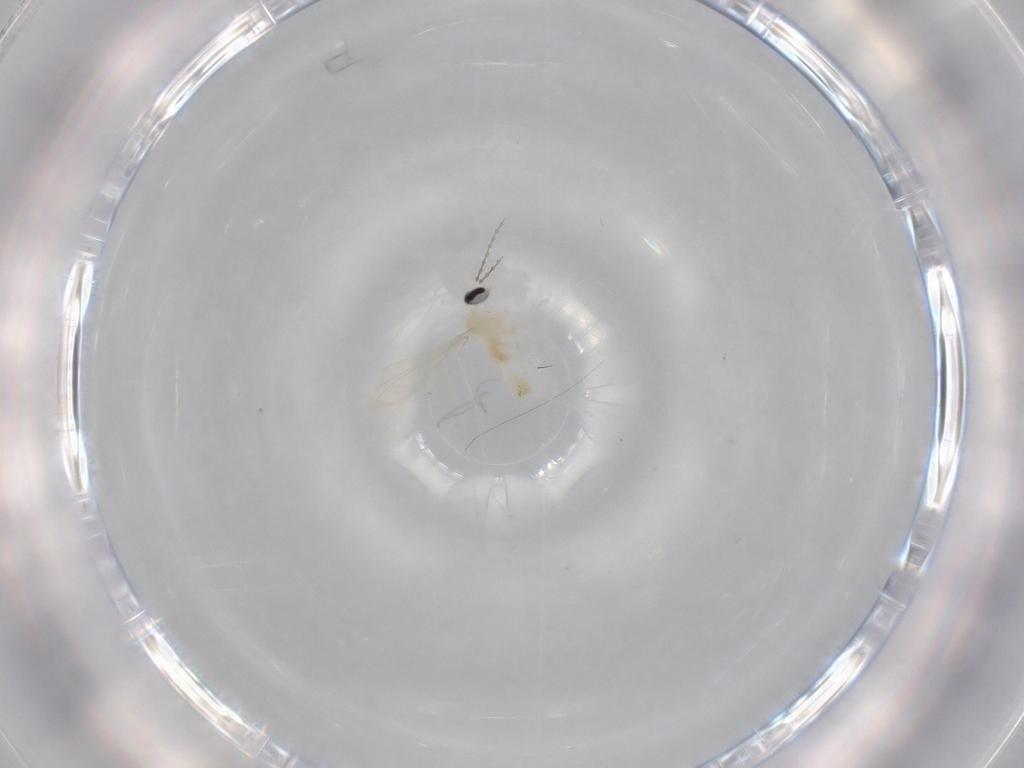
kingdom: Animalia
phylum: Arthropoda
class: Insecta
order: Diptera
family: Cecidomyiidae
